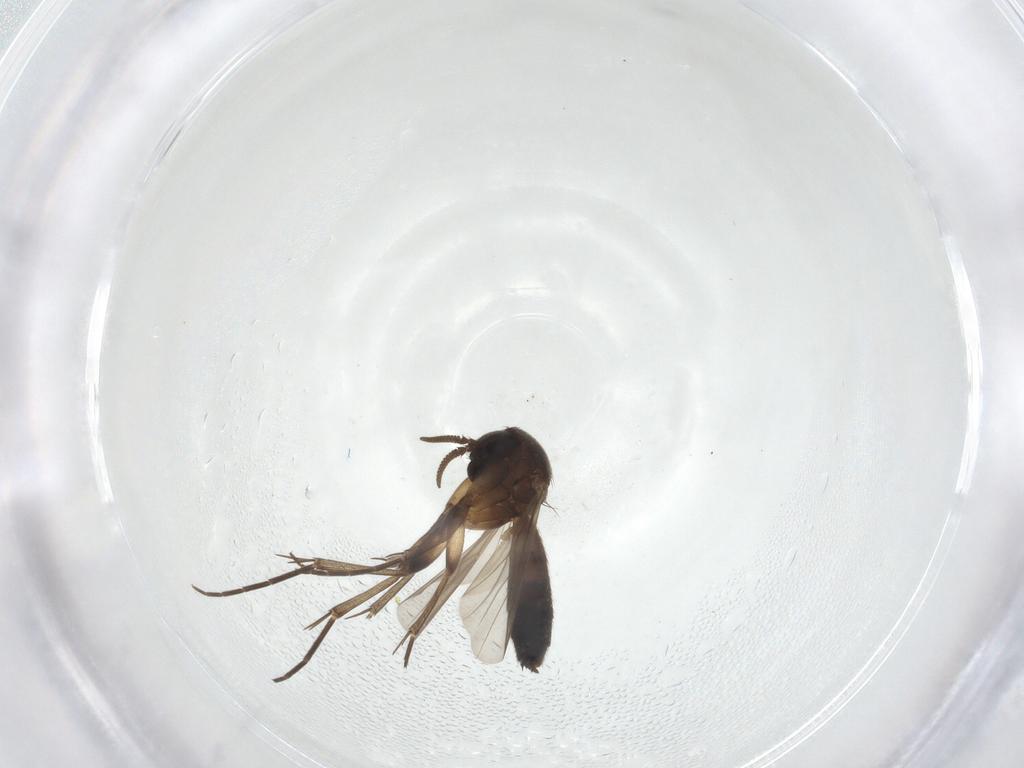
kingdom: Animalia
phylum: Arthropoda
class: Insecta
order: Diptera
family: Mycetophilidae
